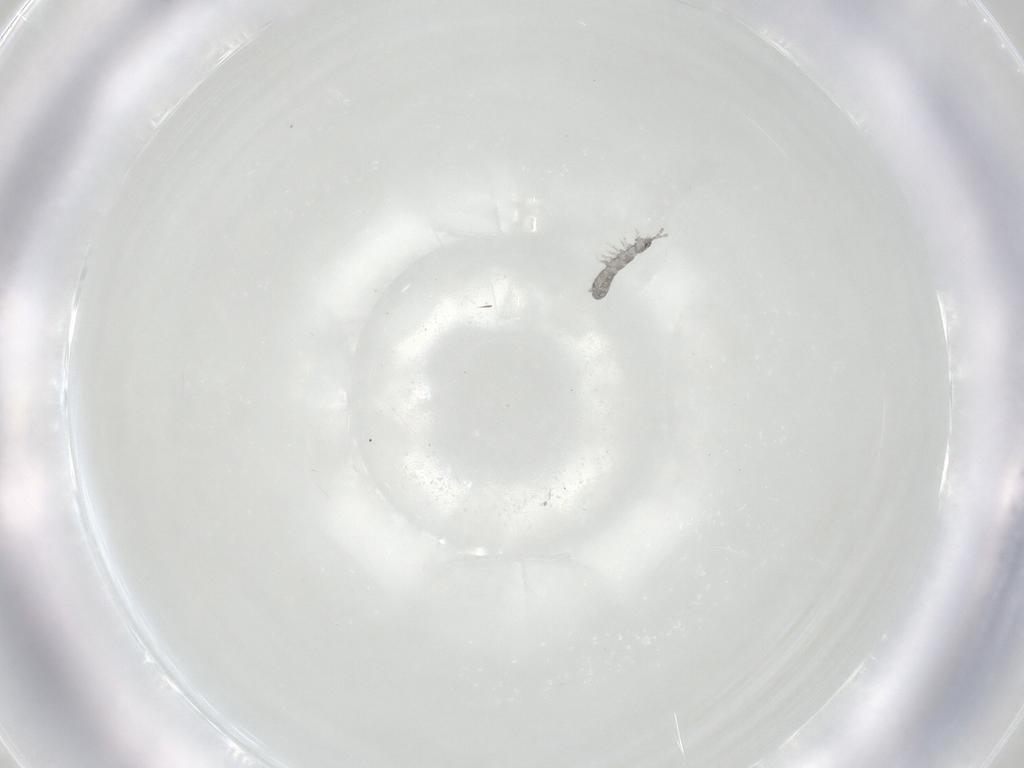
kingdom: Animalia
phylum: Arthropoda
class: Collembola
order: Entomobryomorpha
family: Isotomidae
